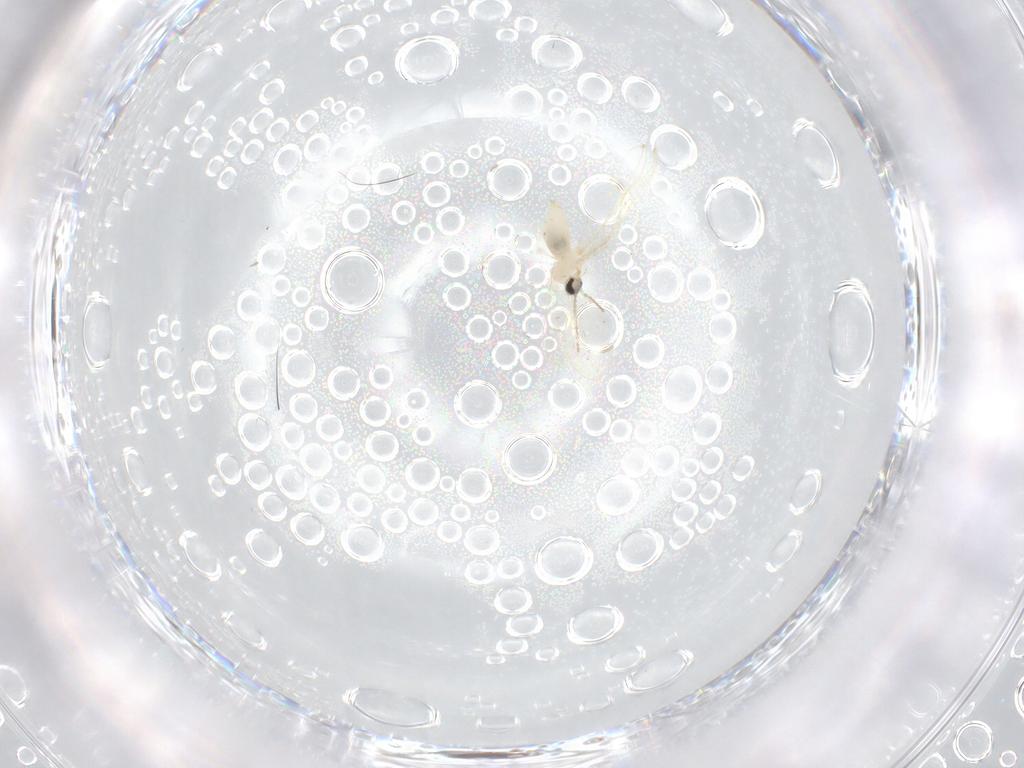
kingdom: Animalia
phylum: Arthropoda
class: Insecta
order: Diptera
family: Cecidomyiidae
